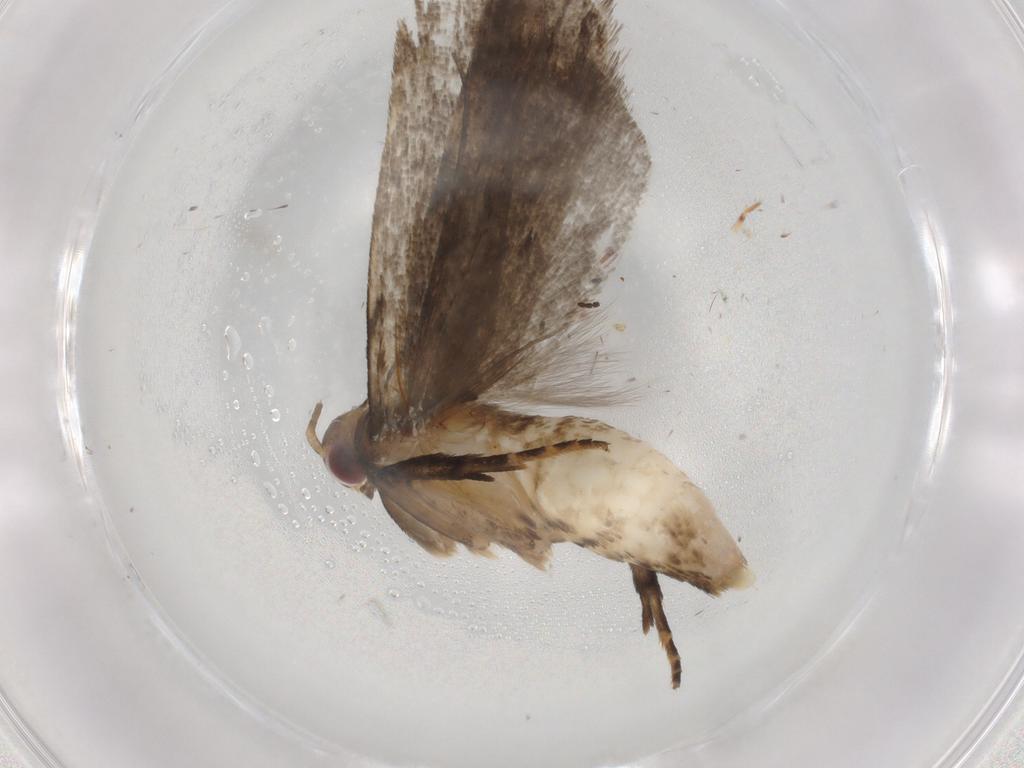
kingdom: Animalia
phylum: Arthropoda
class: Insecta
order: Lepidoptera
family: Gelechiidae
